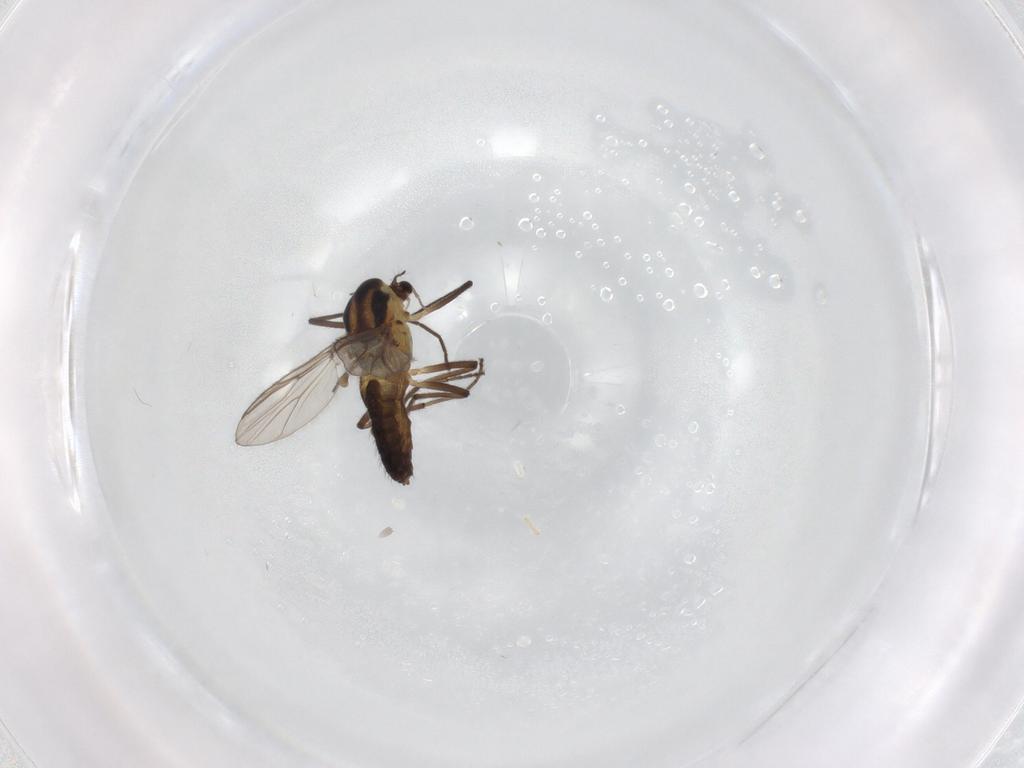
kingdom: Animalia
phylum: Arthropoda
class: Insecta
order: Diptera
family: Chironomidae
